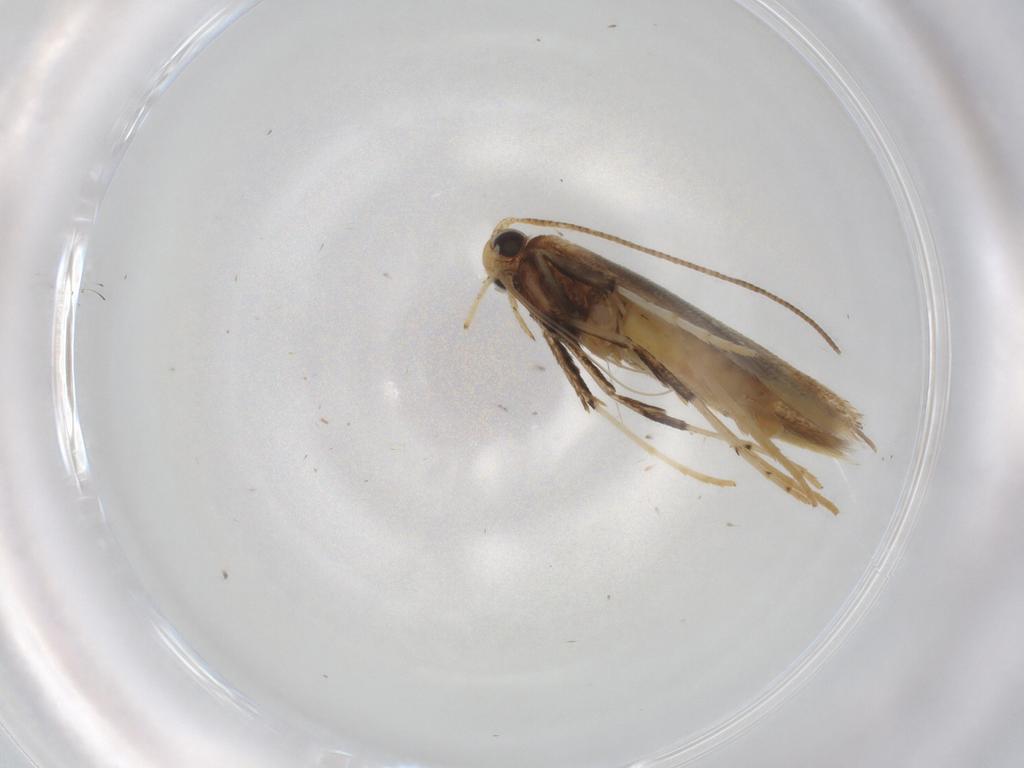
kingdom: Animalia
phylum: Arthropoda
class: Insecta
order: Lepidoptera
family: Gracillariidae
